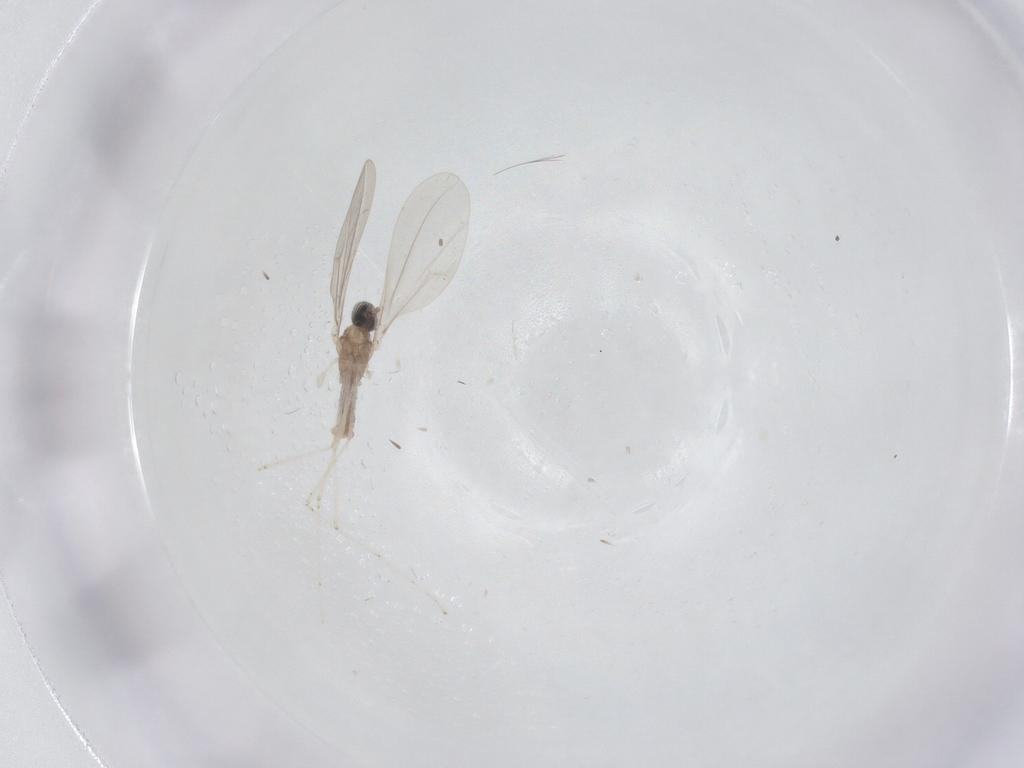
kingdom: Animalia
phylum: Arthropoda
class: Insecta
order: Diptera
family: Cecidomyiidae
